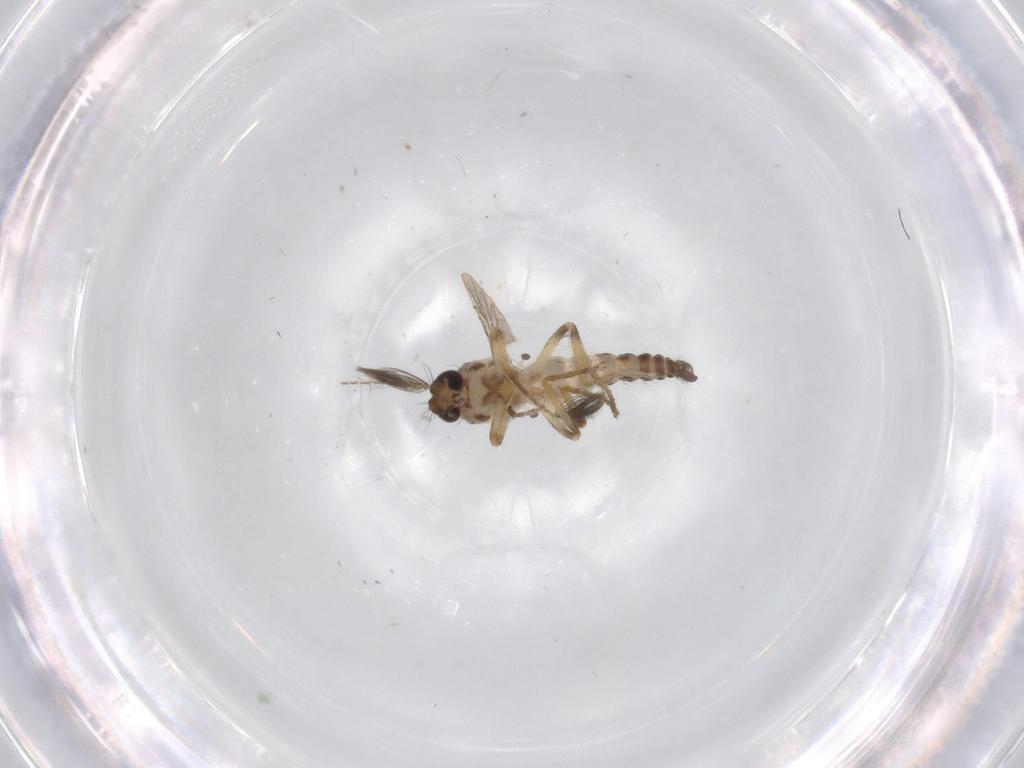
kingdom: Animalia
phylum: Arthropoda
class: Insecta
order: Diptera
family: Ceratopogonidae
